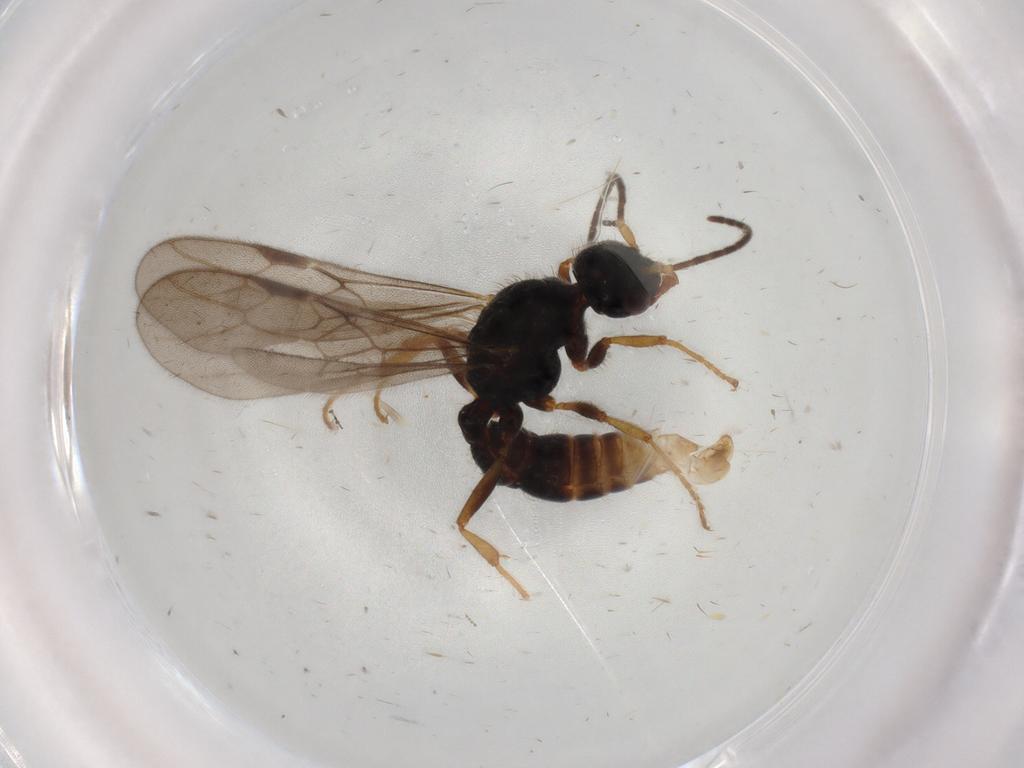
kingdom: Animalia
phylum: Arthropoda
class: Insecta
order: Hymenoptera
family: Formicidae
